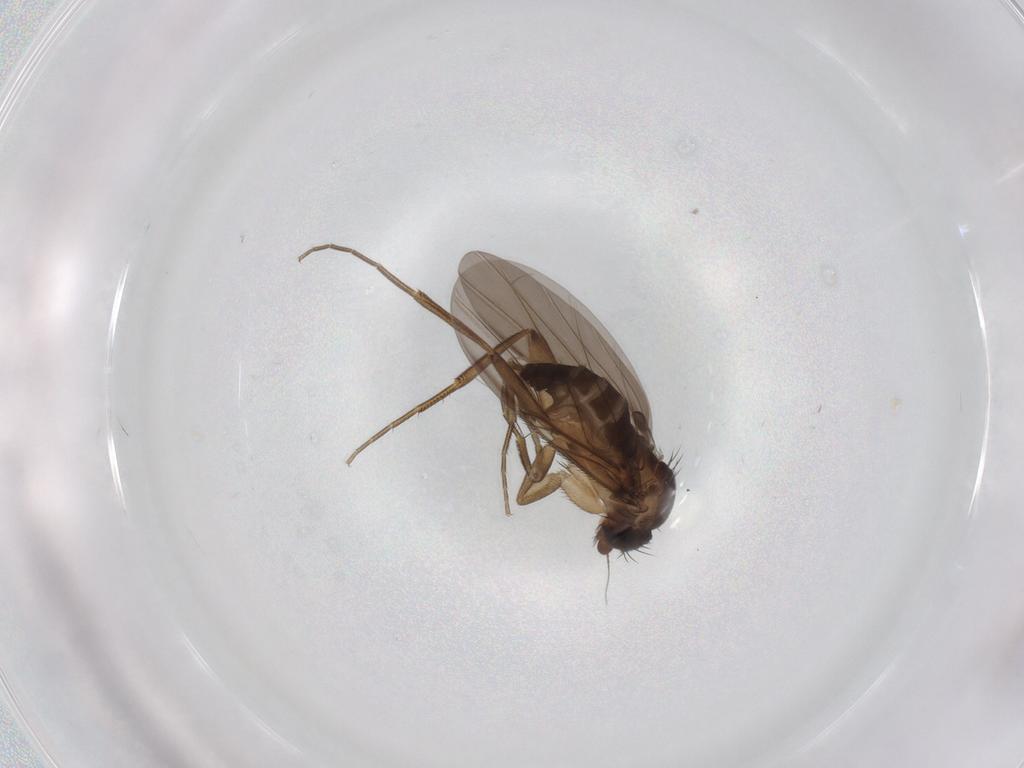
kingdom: Animalia
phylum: Arthropoda
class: Insecta
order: Diptera
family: Phoridae
